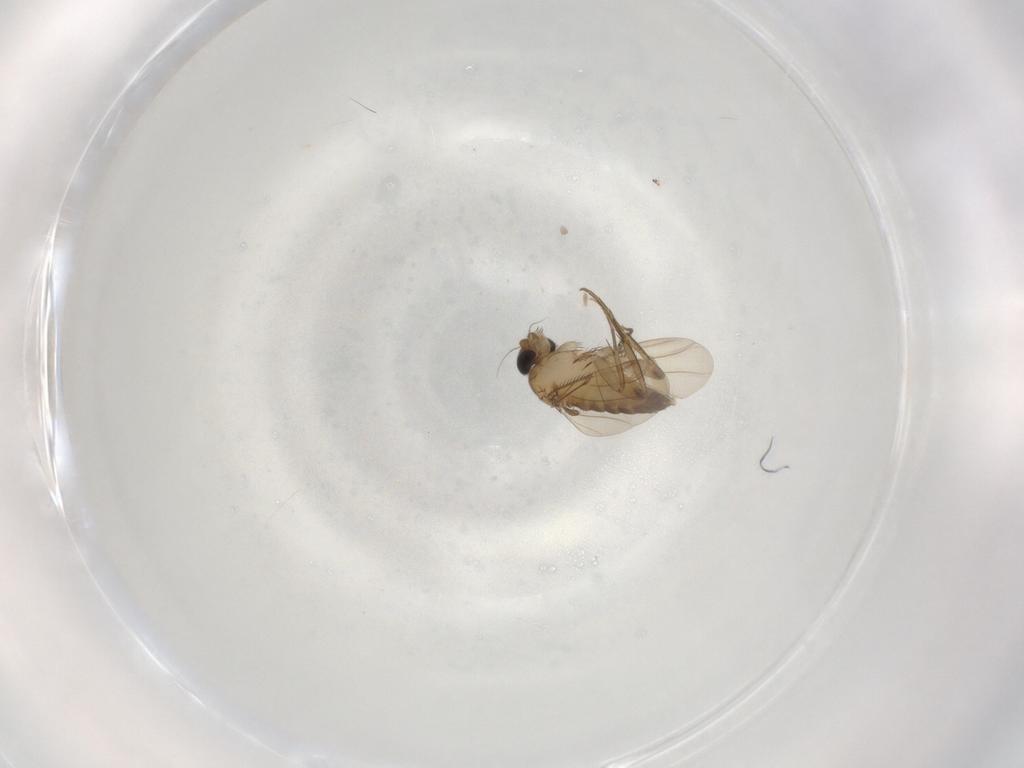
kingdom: Animalia
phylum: Arthropoda
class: Insecta
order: Diptera
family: Phoridae
